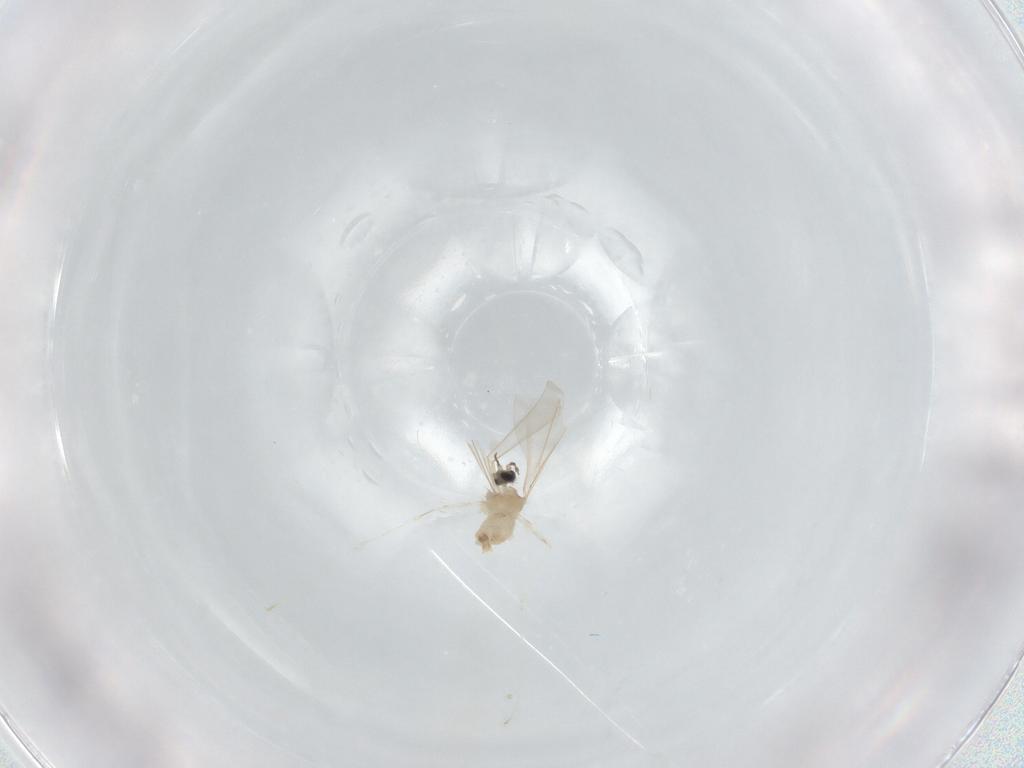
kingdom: Animalia
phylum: Arthropoda
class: Insecta
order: Diptera
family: Cecidomyiidae
